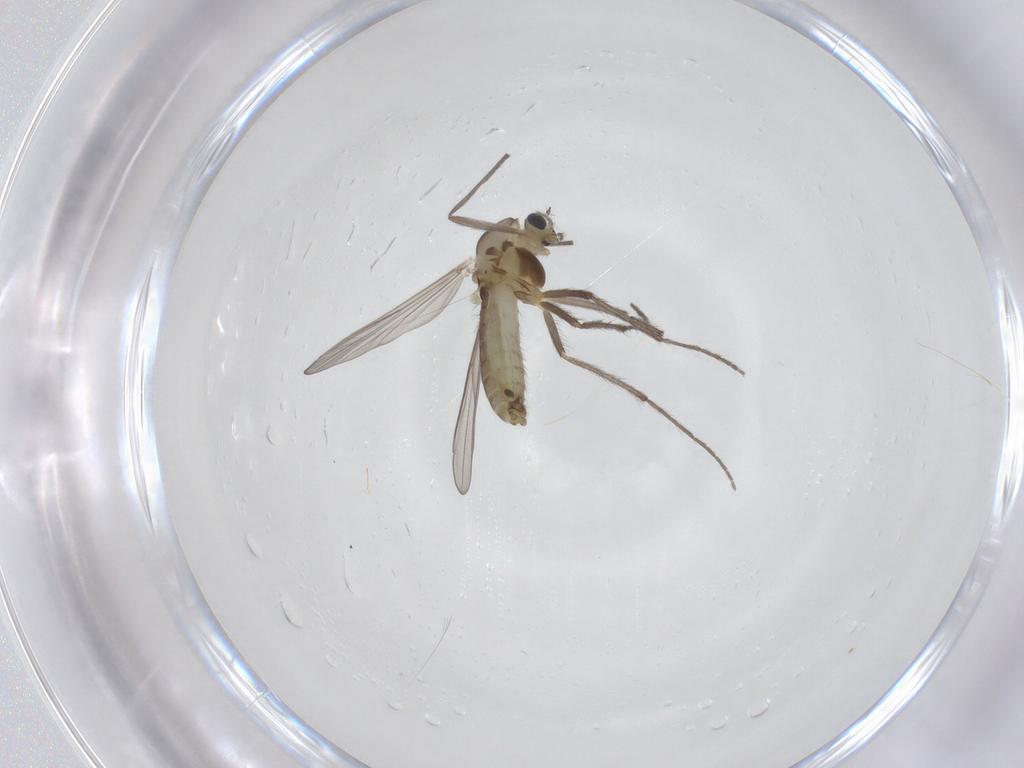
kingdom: Animalia
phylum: Arthropoda
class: Insecta
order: Diptera
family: Chironomidae
